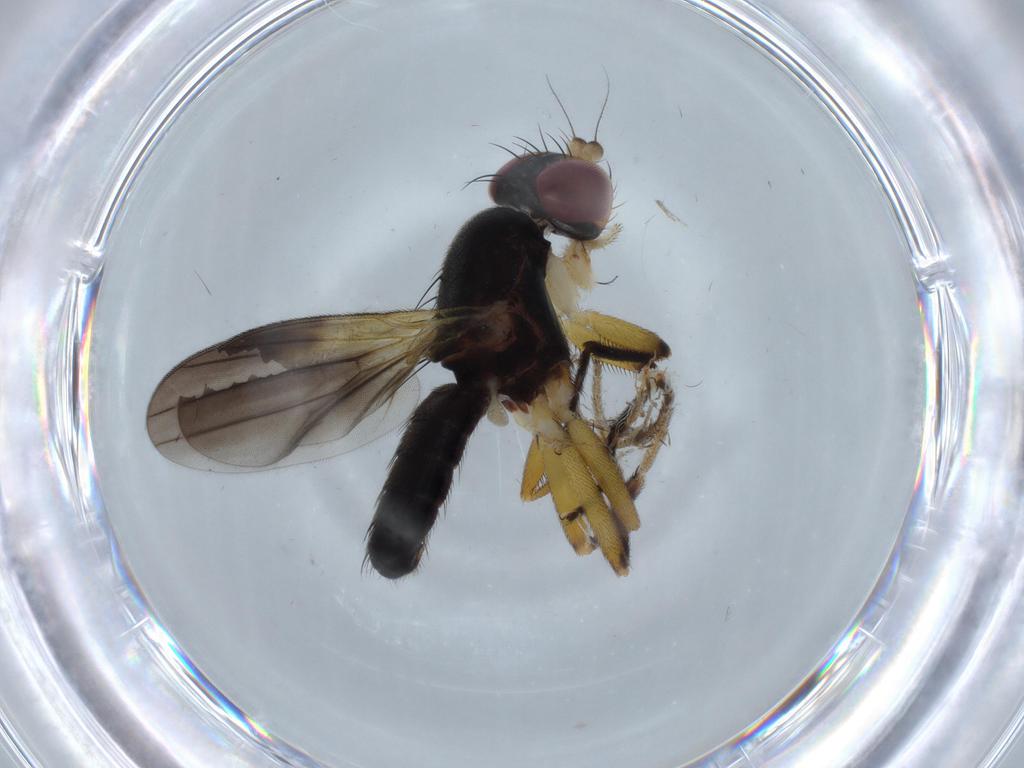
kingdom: Animalia
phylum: Arthropoda
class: Insecta
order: Diptera
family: Clusiidae
